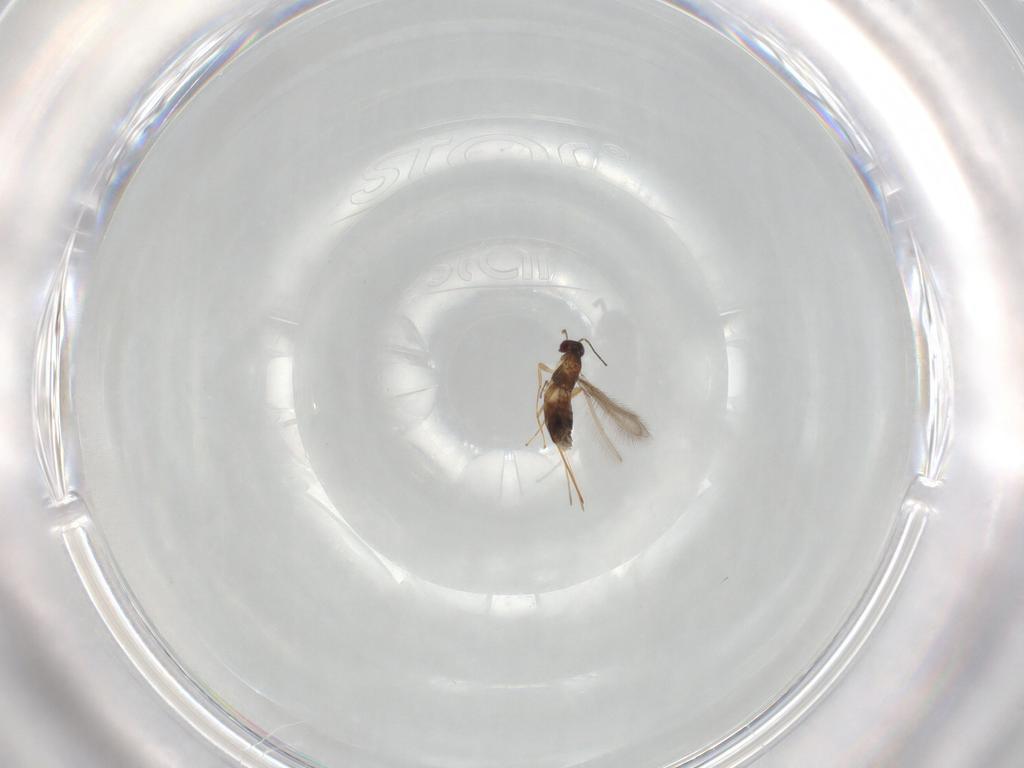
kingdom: Animalia
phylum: Arthropoda
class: Insecta
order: Hymenoptera
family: Mymaridae
